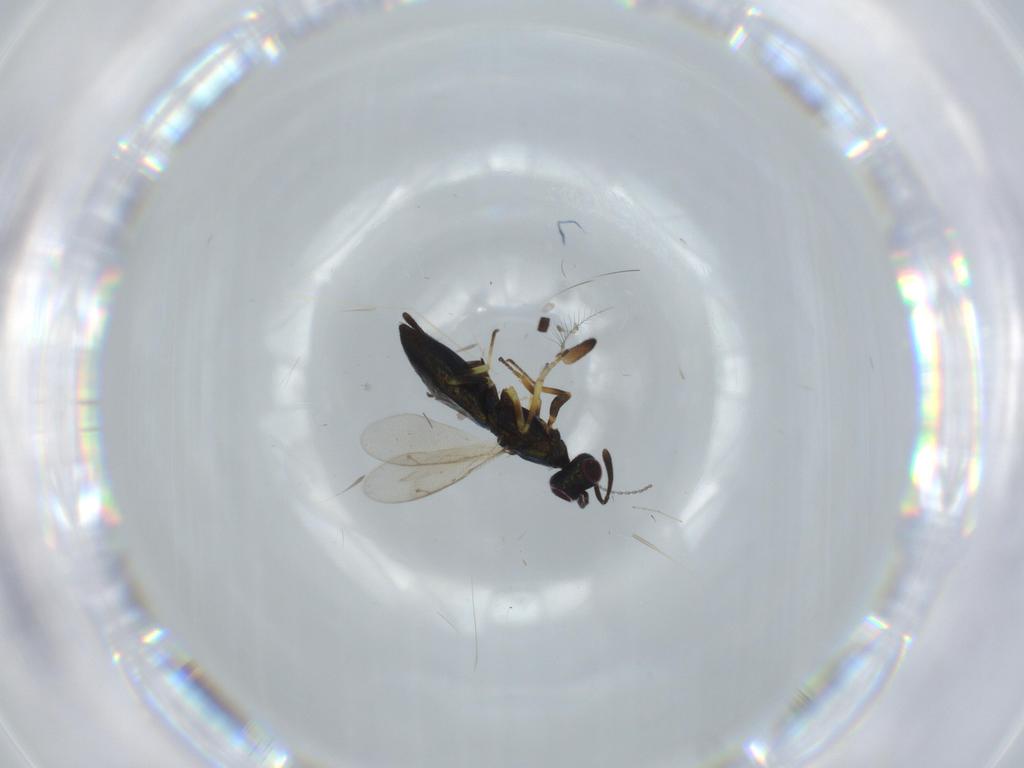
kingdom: Animalia
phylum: Arthropoda
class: Insecta
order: Hymenoptera
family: Eupelmidae
